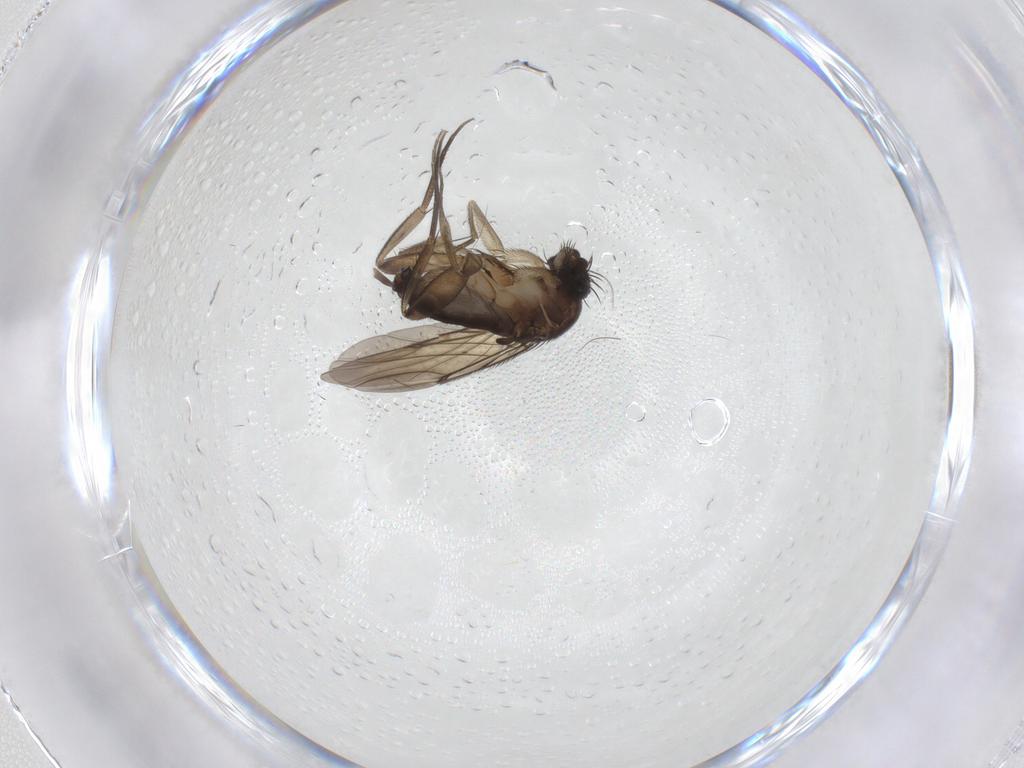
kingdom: Animalia
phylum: Arthropoda
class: Insecta
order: Diptera
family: Phoridae
